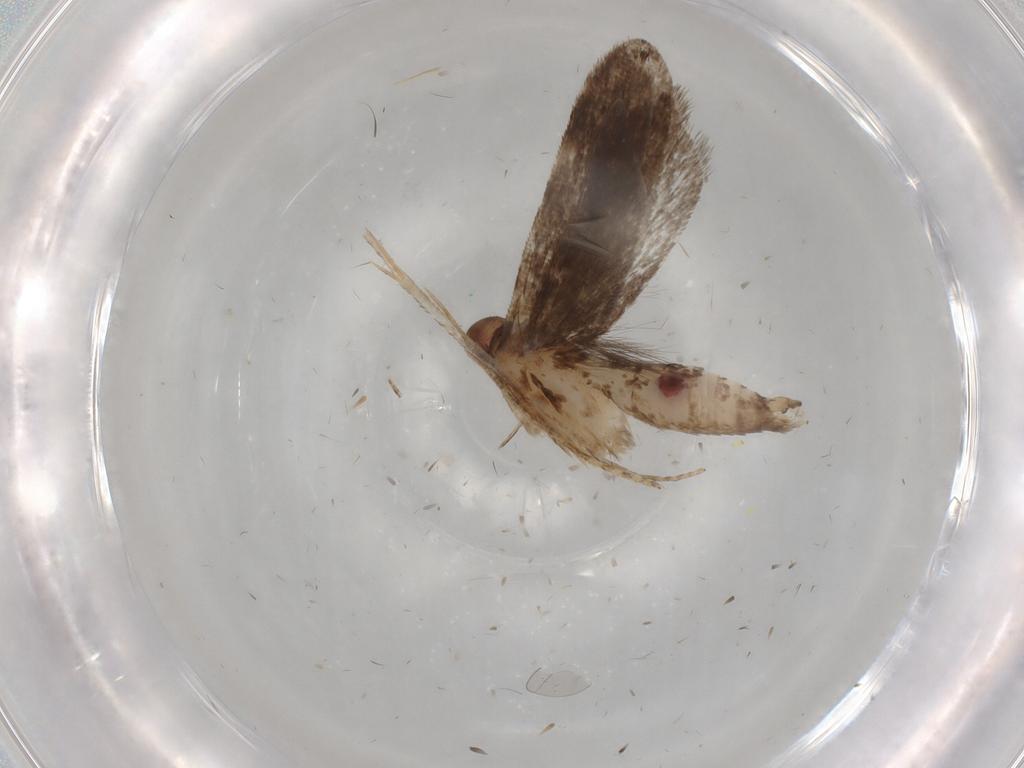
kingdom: Animalia
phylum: Arthropoda
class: Insecta
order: Lepidoptera
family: Gelechiidae
